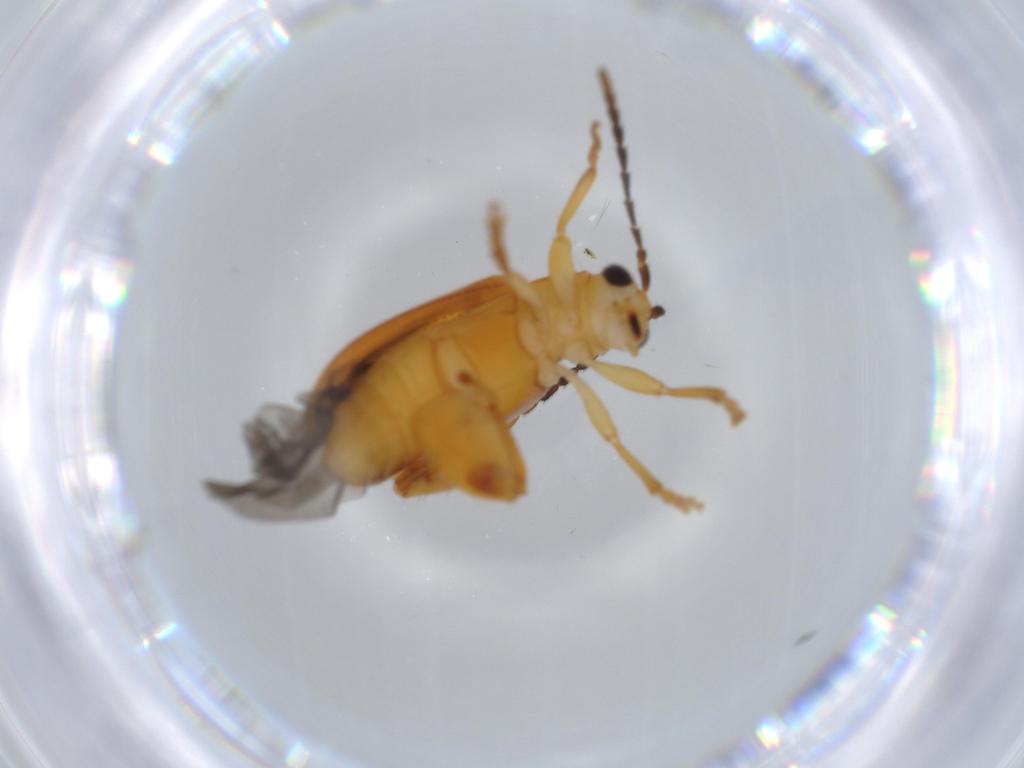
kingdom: Animalia
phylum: Arthropoda
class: Insecta
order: Coleoptera
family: Chrysomelidae
